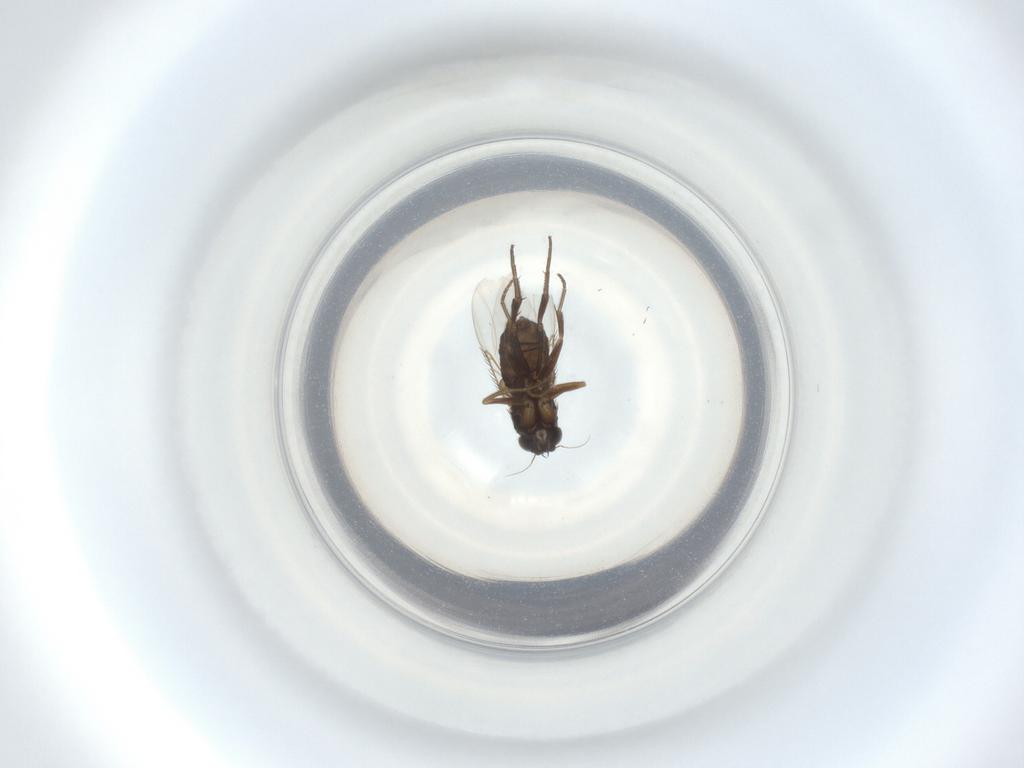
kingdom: Animalia
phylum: Arthropoda
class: Insecta
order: Diptera
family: Phoridae
